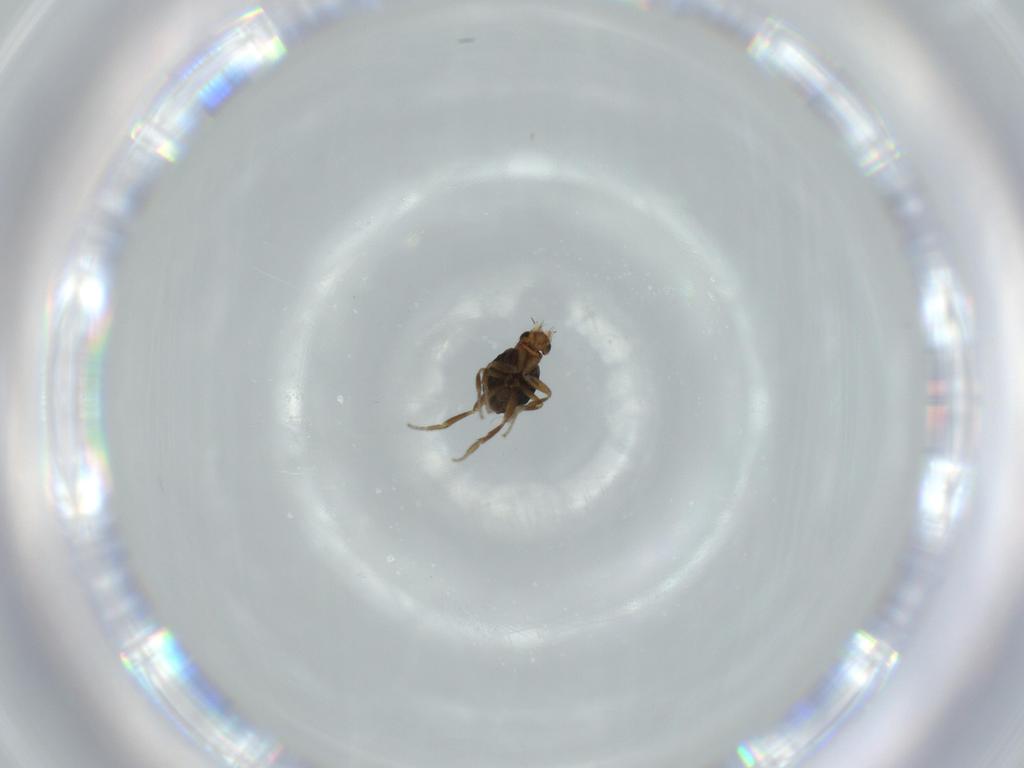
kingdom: Animalia
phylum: Arthropoda
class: Insecta
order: Diptera
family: Phoridae
